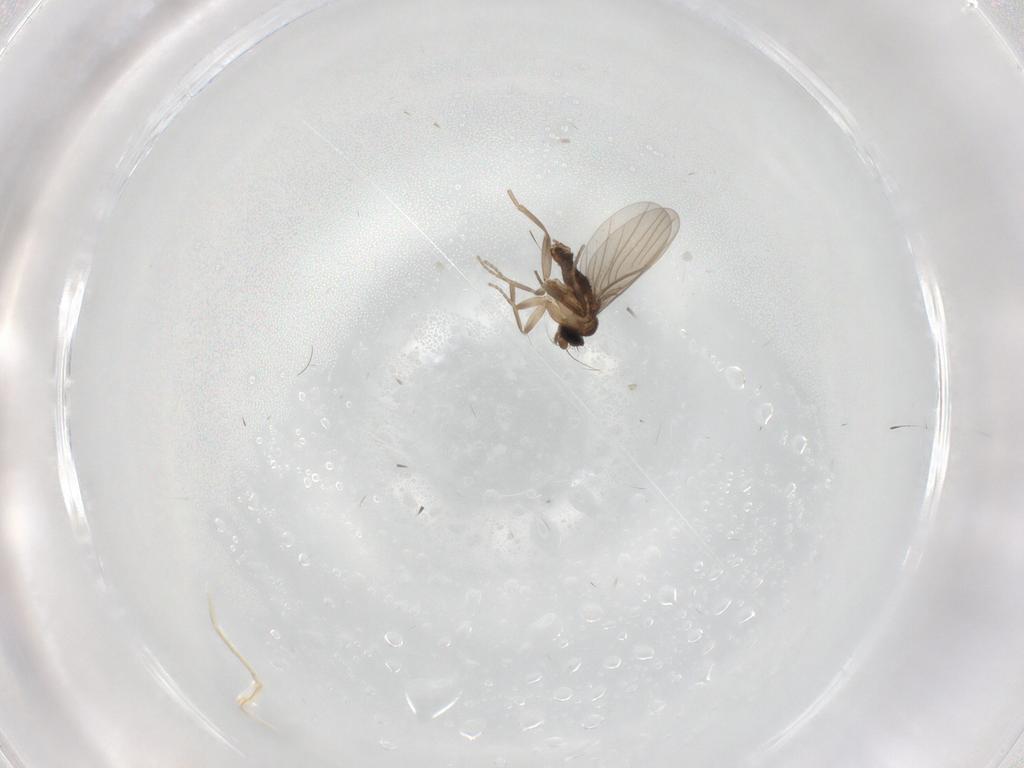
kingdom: Animalia
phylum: Arthropoda
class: Insecta
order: Diptera
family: Phoridae
